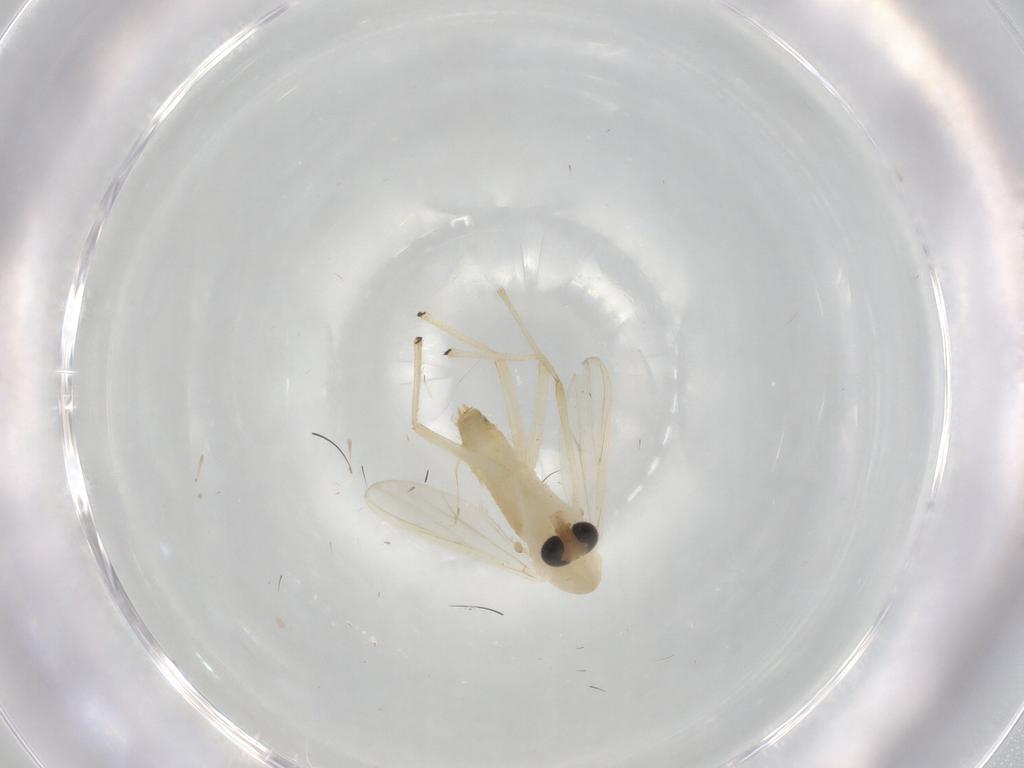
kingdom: Animalia
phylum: Arthropoda
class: Insecta
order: Diptera
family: Chironomidae
